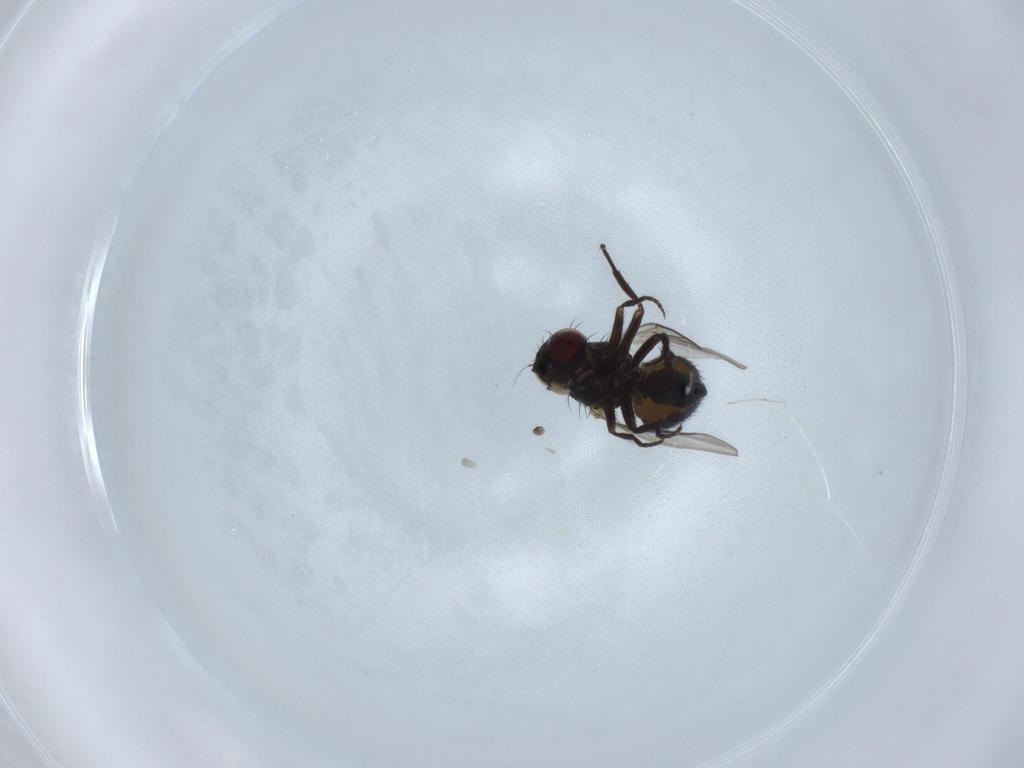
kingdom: Animalia
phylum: Arthropoda
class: Insecta
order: Diptera
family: Agromyzidae
